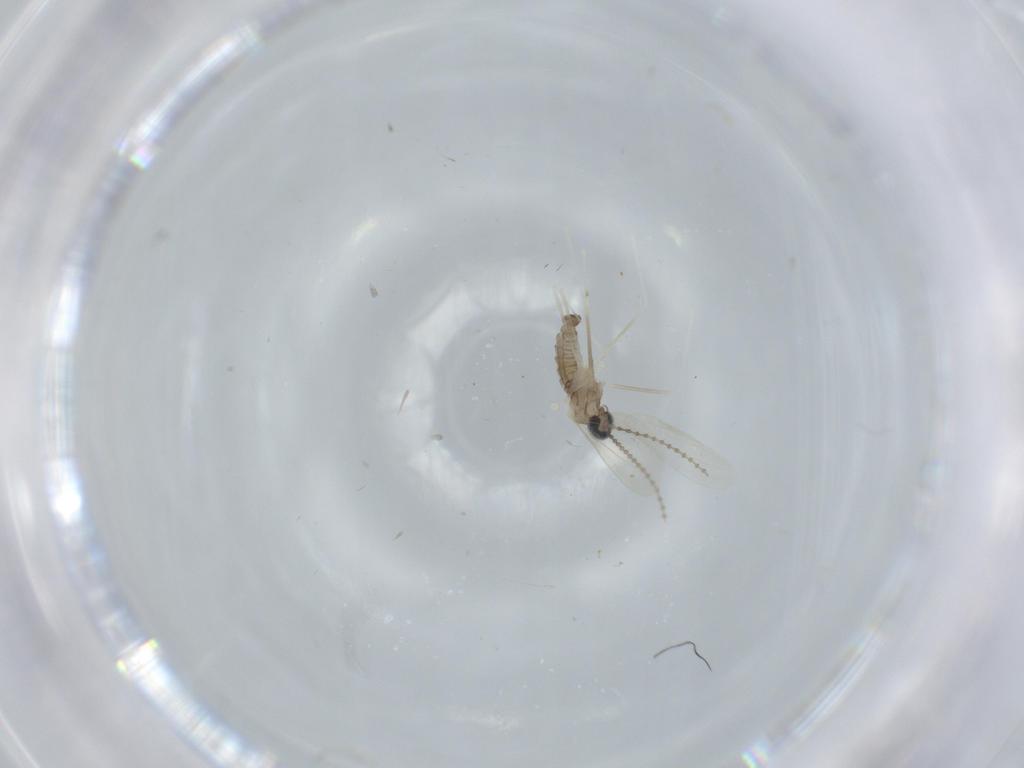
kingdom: Animalia
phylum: Arthropoda
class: Insecta
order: Diptera
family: Cecidomyiidae
